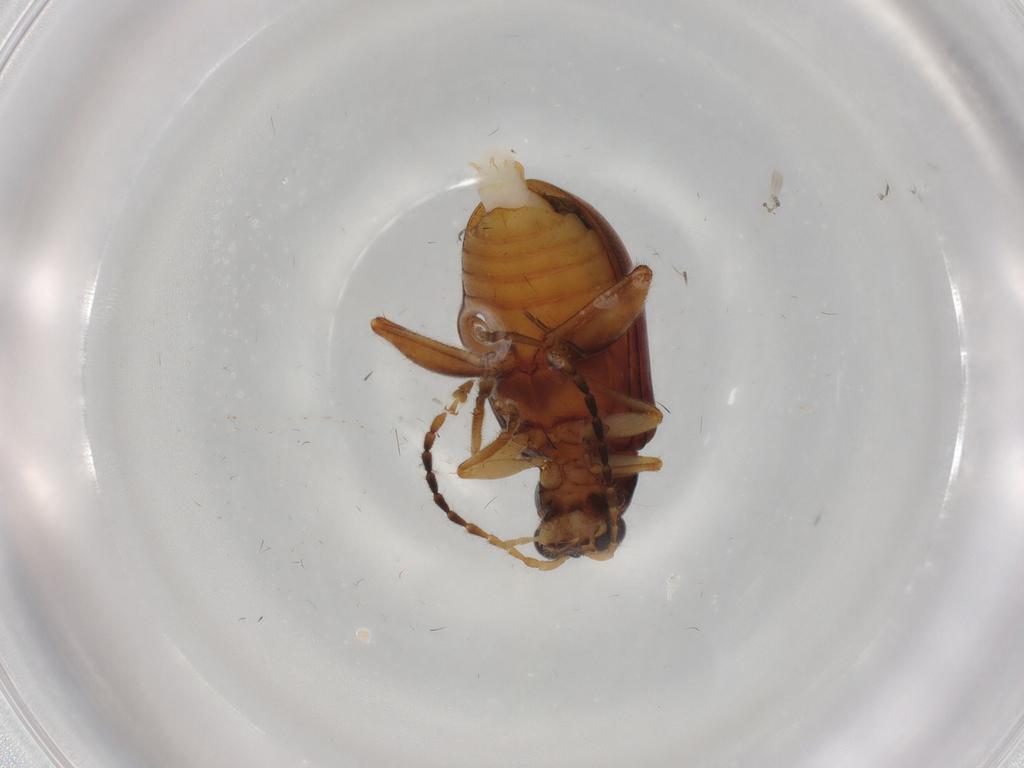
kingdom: Animalia
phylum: Arthropoda
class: Insecta
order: Coleoptera
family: Chrysomelidae
